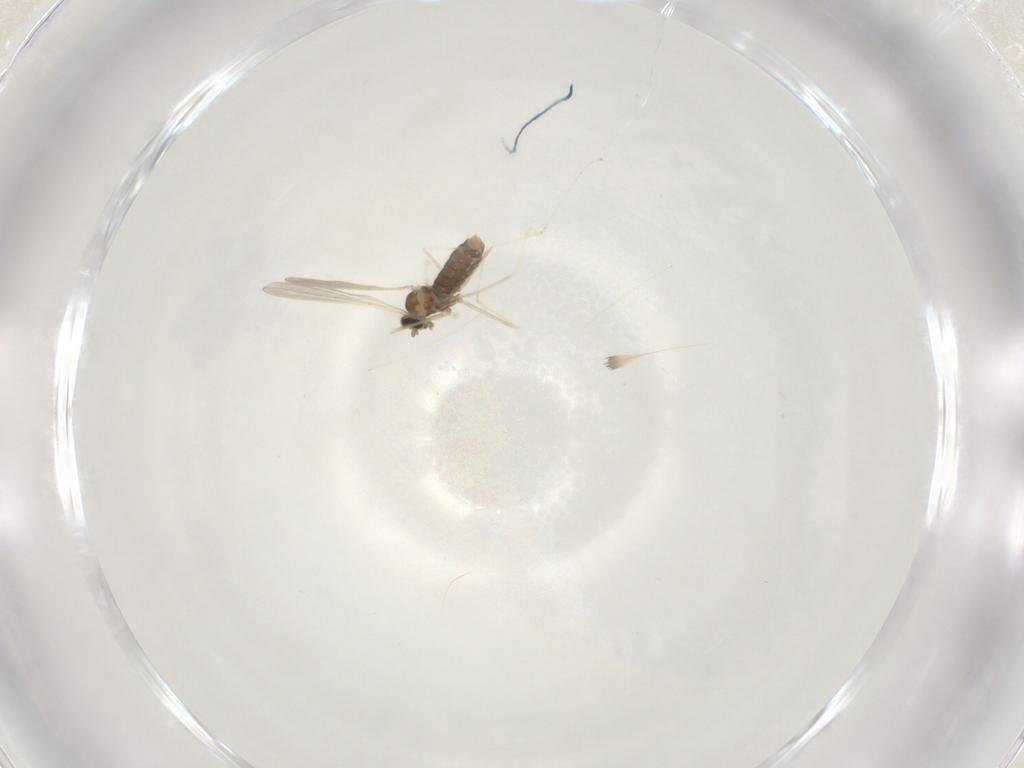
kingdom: Animalia
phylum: Arthropoda
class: Insecta
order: Diptera
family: Cecidomyiidae
